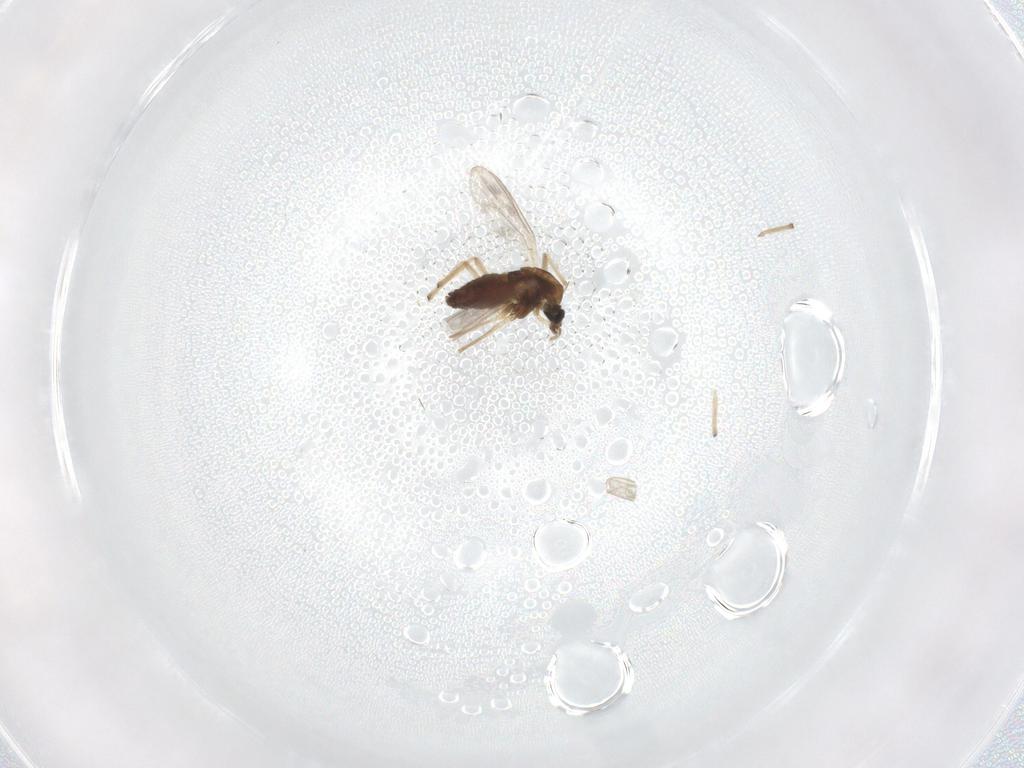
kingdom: Animalia
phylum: Arthropoda
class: Insecta
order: Diptera
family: Chironomidae
